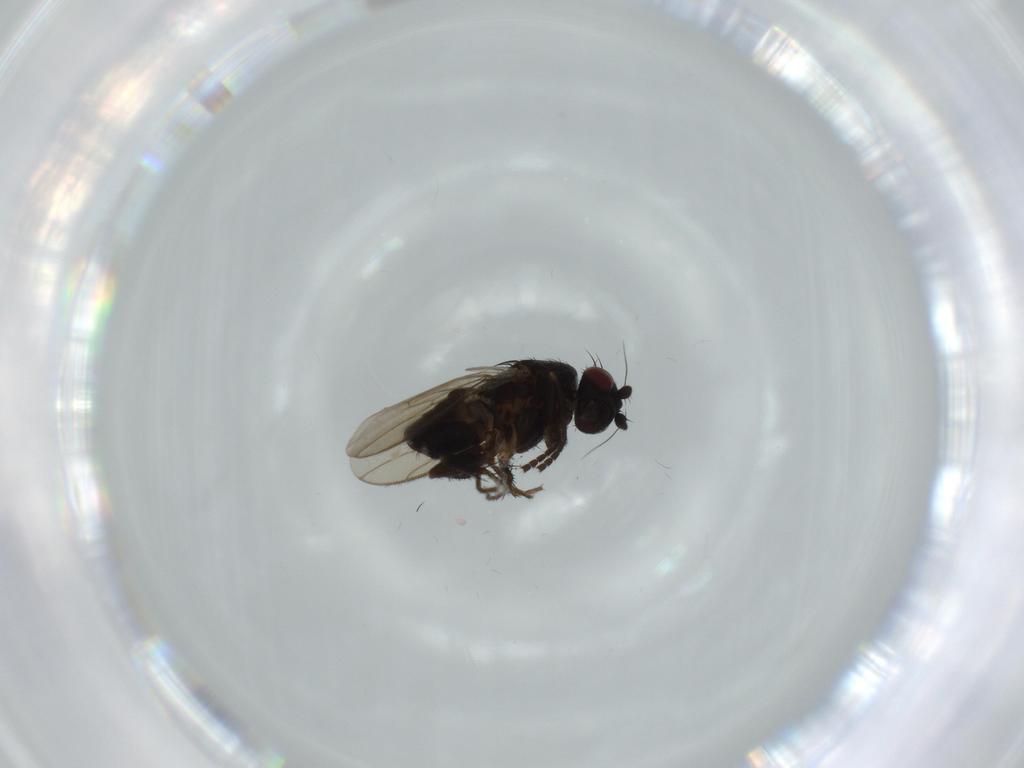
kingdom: Animalia
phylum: Arthropoda
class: Insecta
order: Diptera
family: Sphaeroceridae
